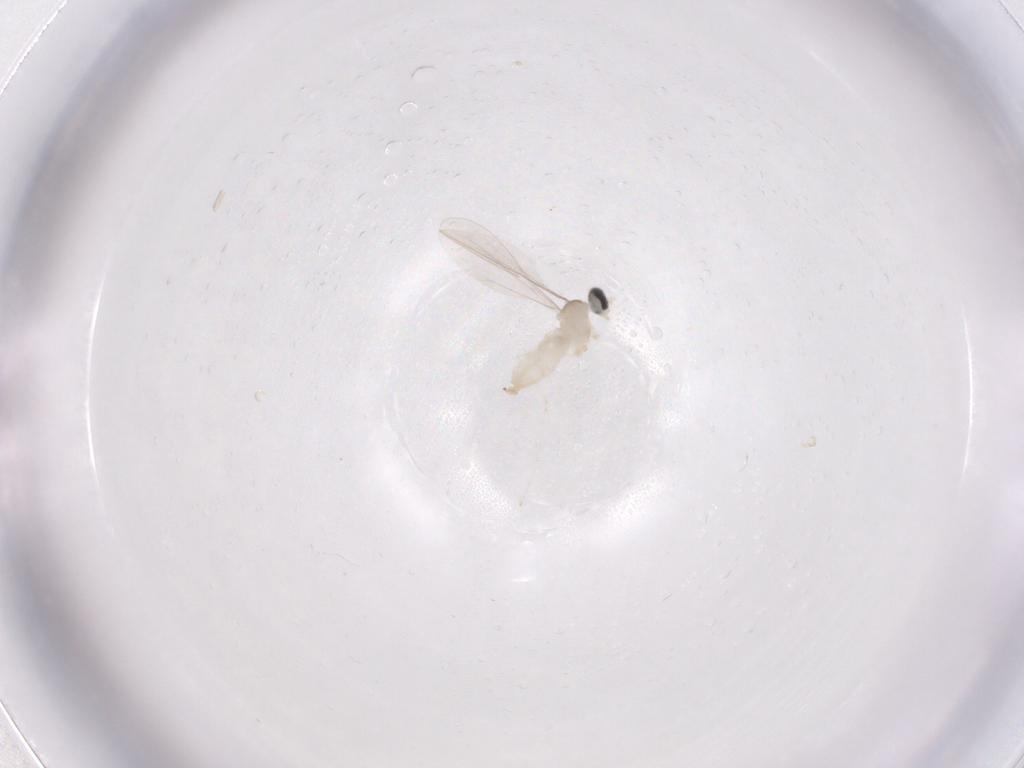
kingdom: Animalia
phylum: Arthropoda
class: Insecta
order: Diptera
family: Cecidomyiidae
